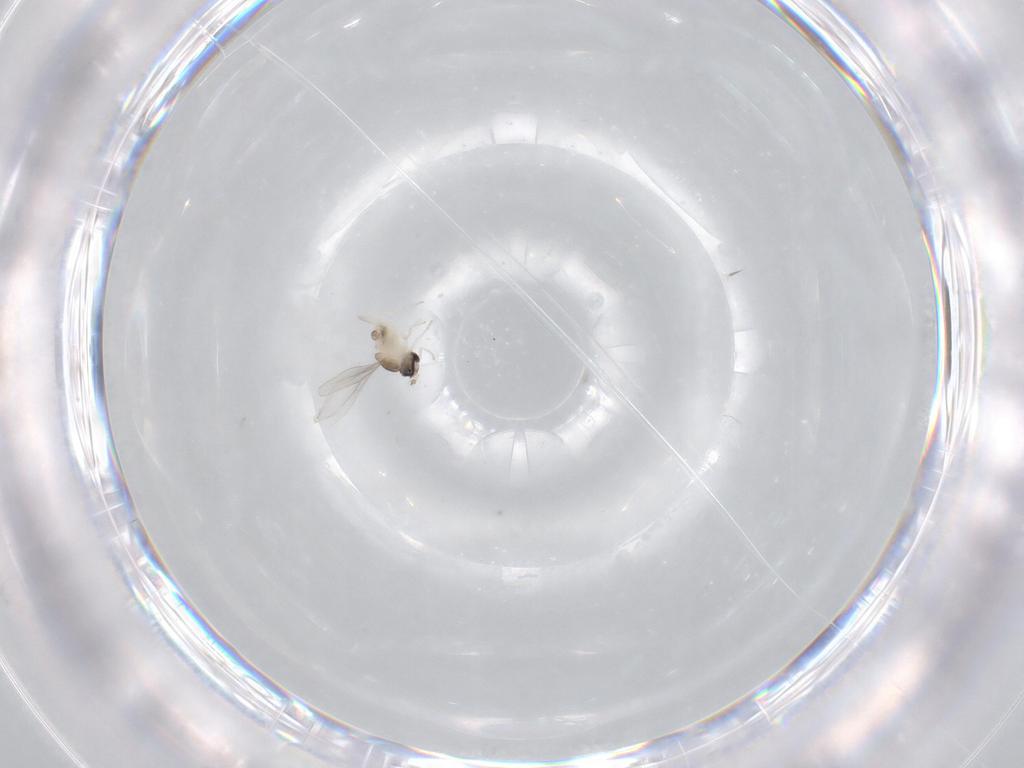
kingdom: Animalia
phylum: Arthropoda
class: Insecta
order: Diptera
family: Cecidomyiidae
